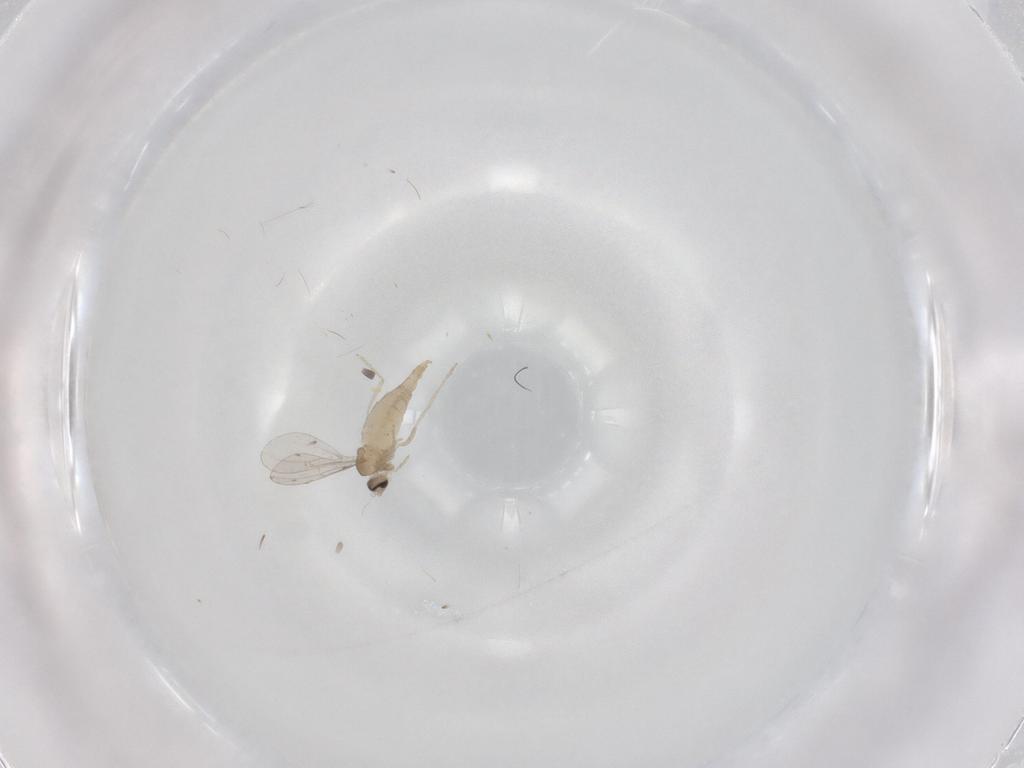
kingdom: Animalia
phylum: Arthropoda
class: Insecta
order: Diptera
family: Cecidomyiidae
